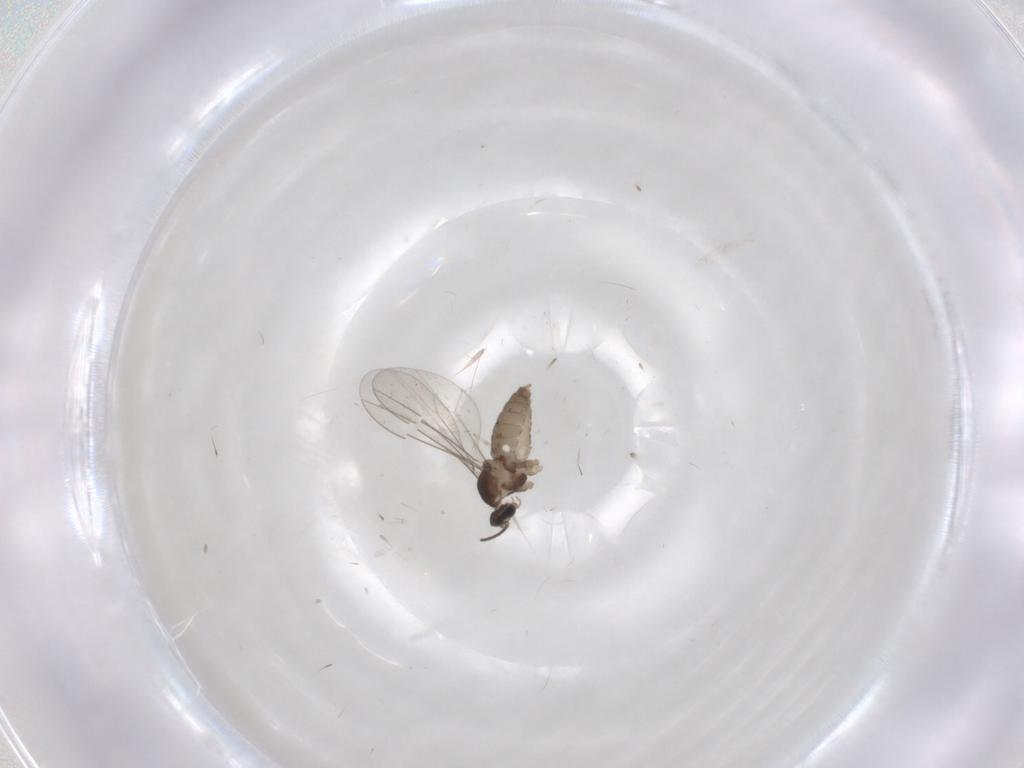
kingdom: Animalia
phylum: Arthropoda
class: Insecta
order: Diptera
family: Cecidomyiidae
